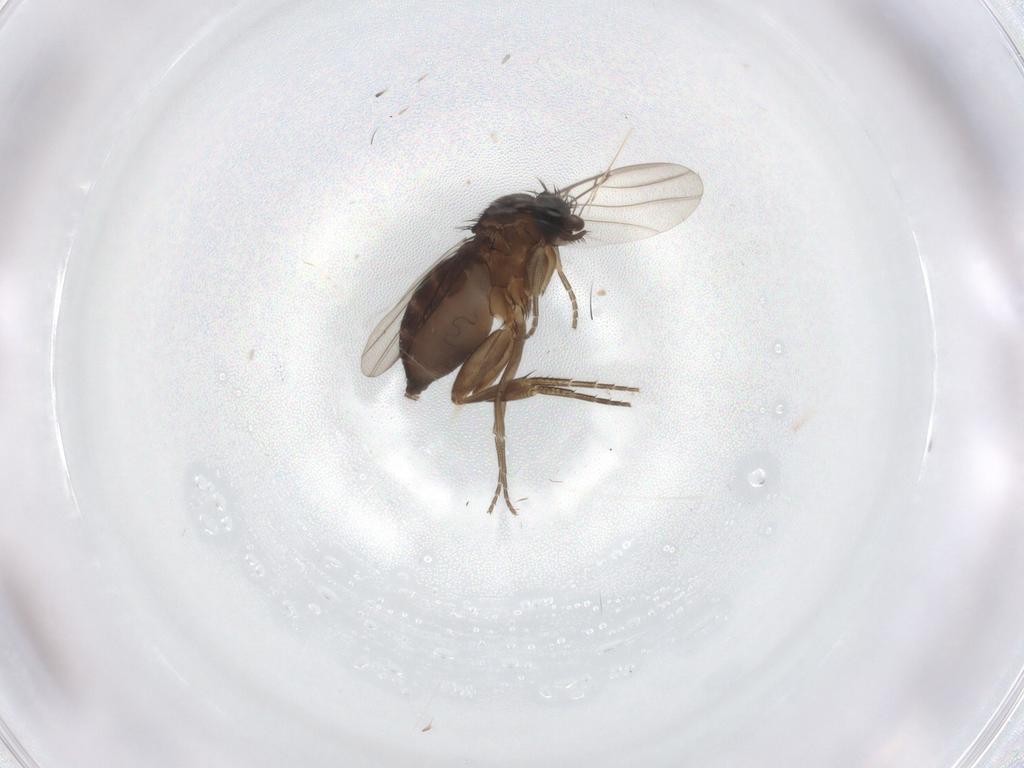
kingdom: Animalia
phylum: Arthropoda
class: Insecta
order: Diptera
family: Phoridae
